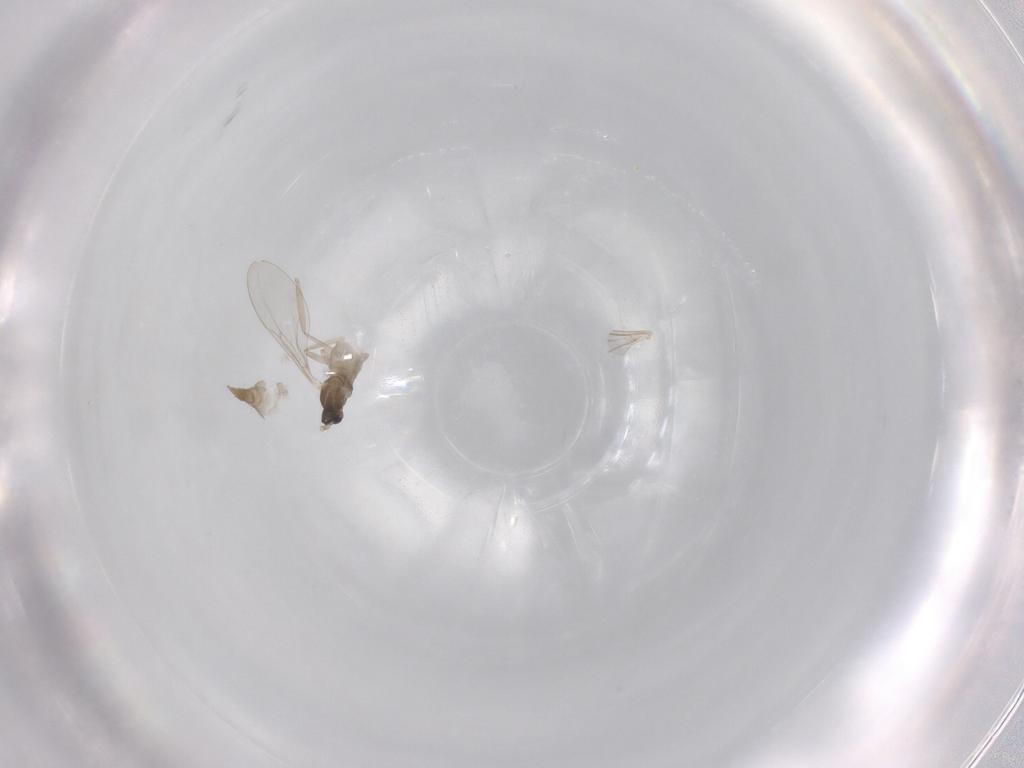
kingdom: Animalia
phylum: Arthropoda
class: Insecta
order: Diptera
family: Cecidomyiidae
